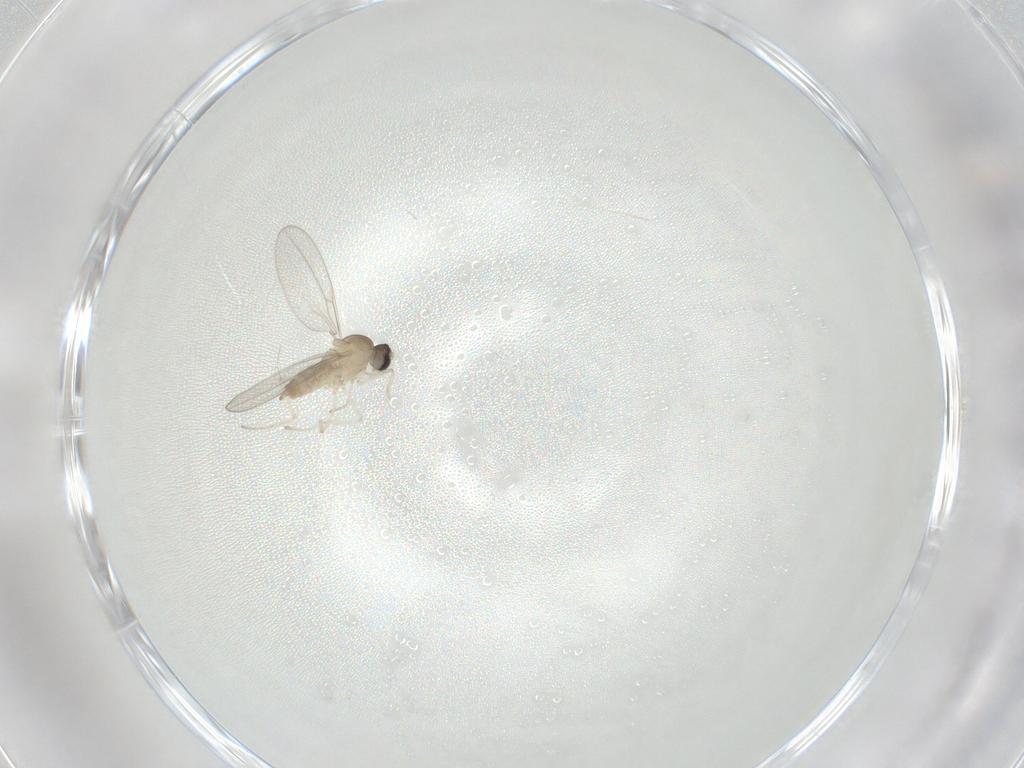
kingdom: Animalia
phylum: Arthropoda
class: Insecta
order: Diptera
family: Cecidomyiidae
